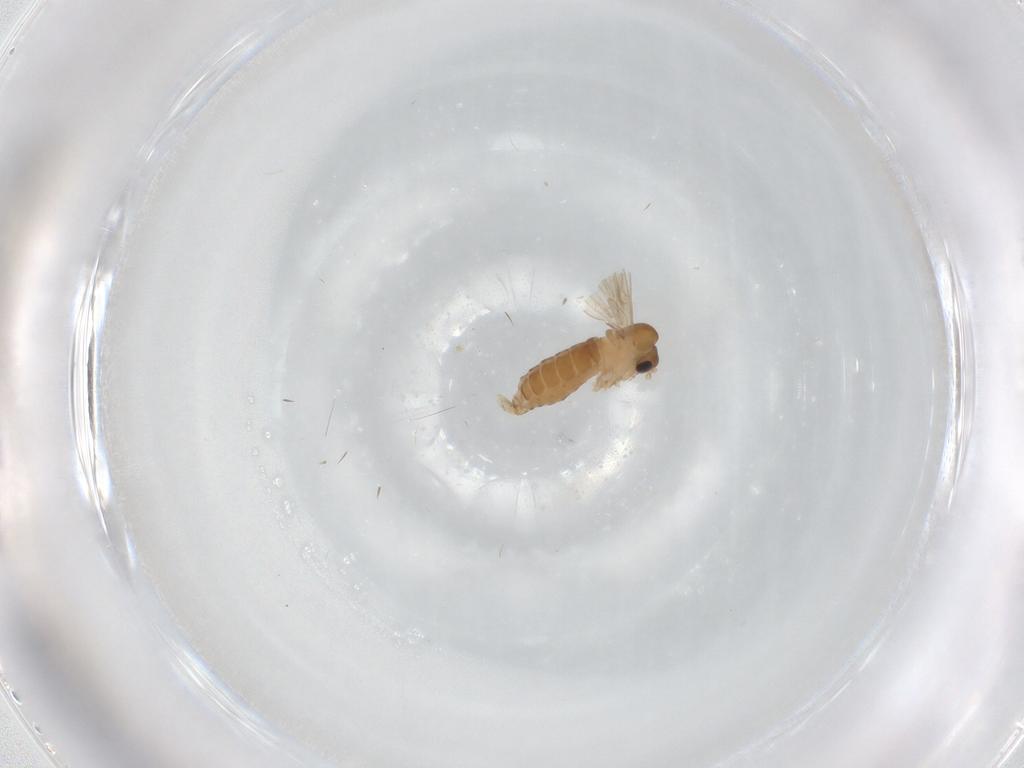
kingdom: Animalia
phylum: Arthropoda
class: Insecta
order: Diptera
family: Psychodidae
